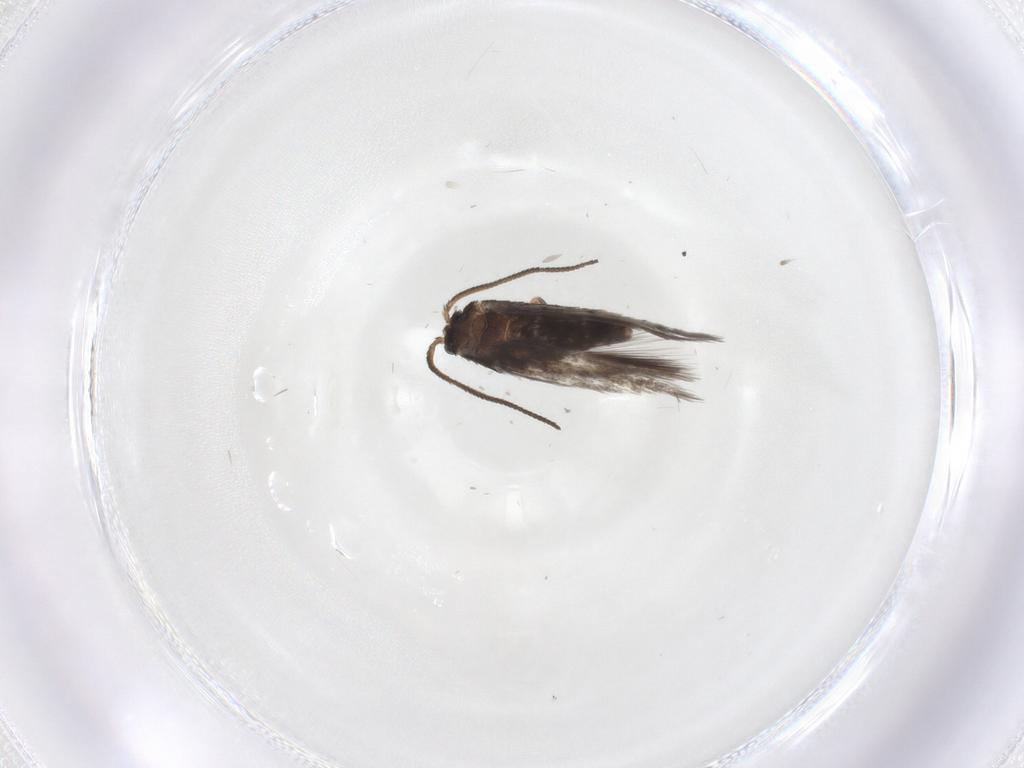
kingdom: Animalia
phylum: Arthropoda
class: Insecta
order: Lepidoptera
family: Nepticulidae
